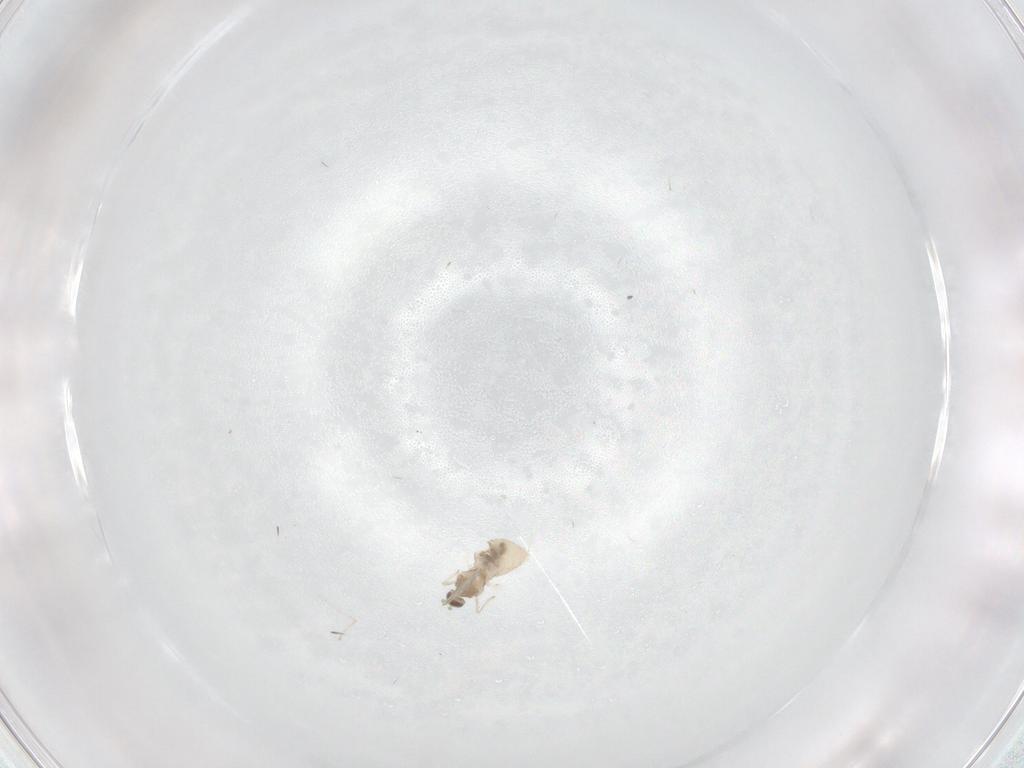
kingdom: Animalia
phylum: Arthropoda
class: Insecta
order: Diptera
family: Cecidomyiidae
